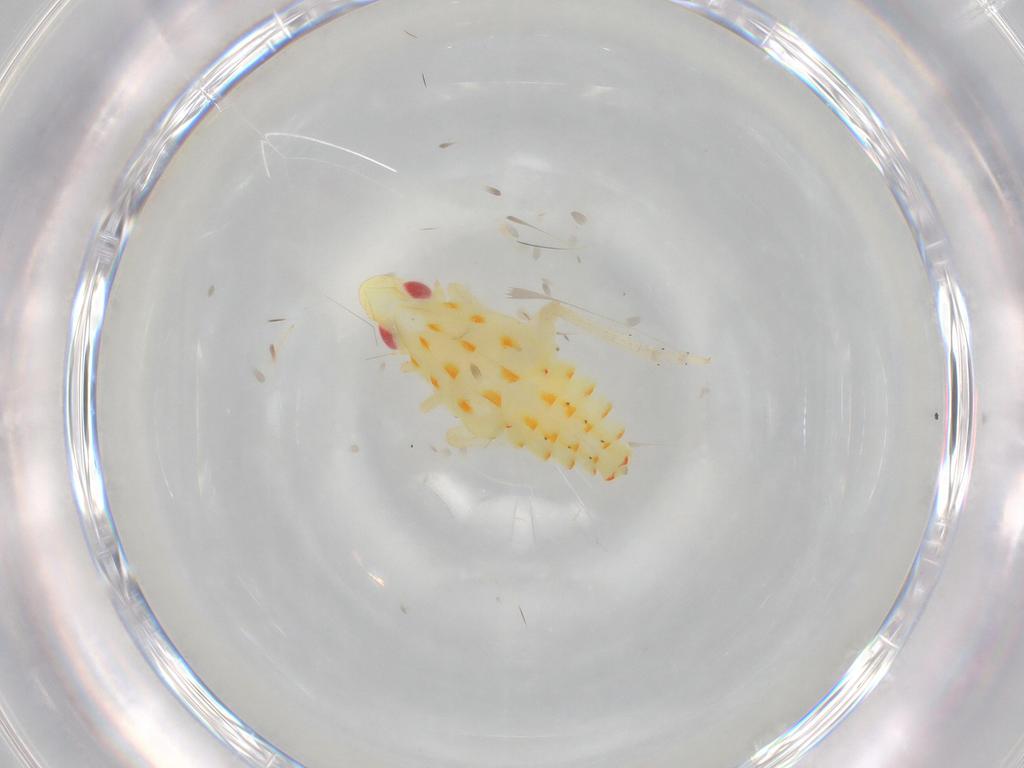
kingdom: Animalia
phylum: Arthropoda
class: Insecta
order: Hemiptera
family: Tropiduchidae
